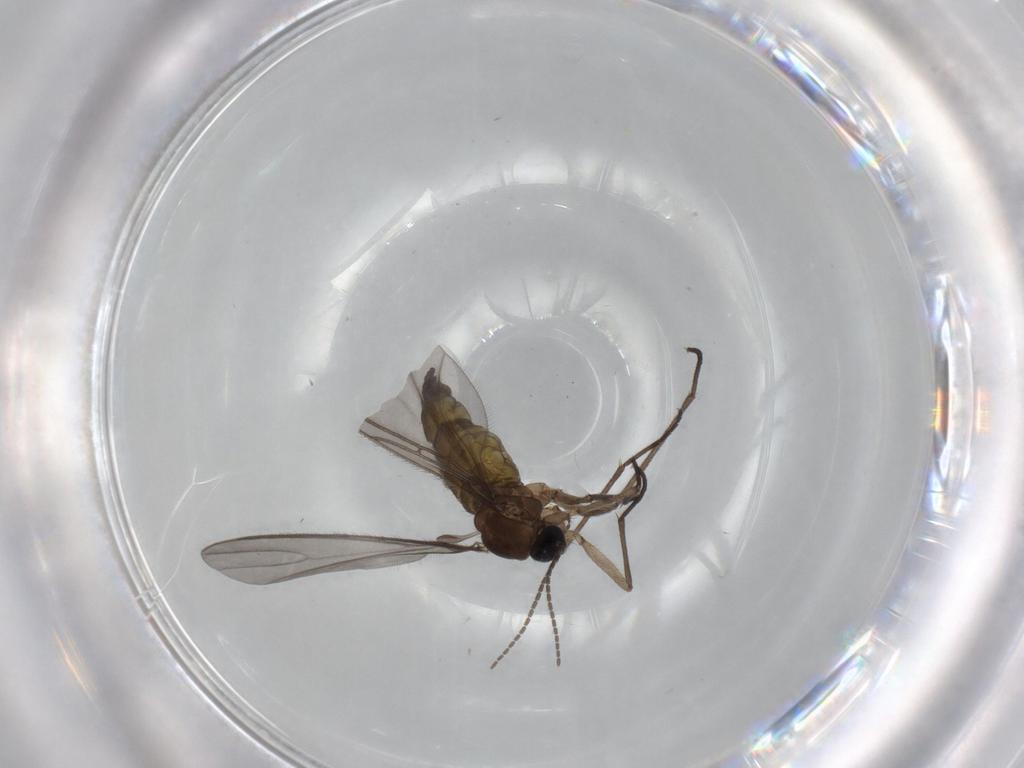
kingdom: Animalia
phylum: Arthropoda
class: Insecta
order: Diptera
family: Sciaridae
